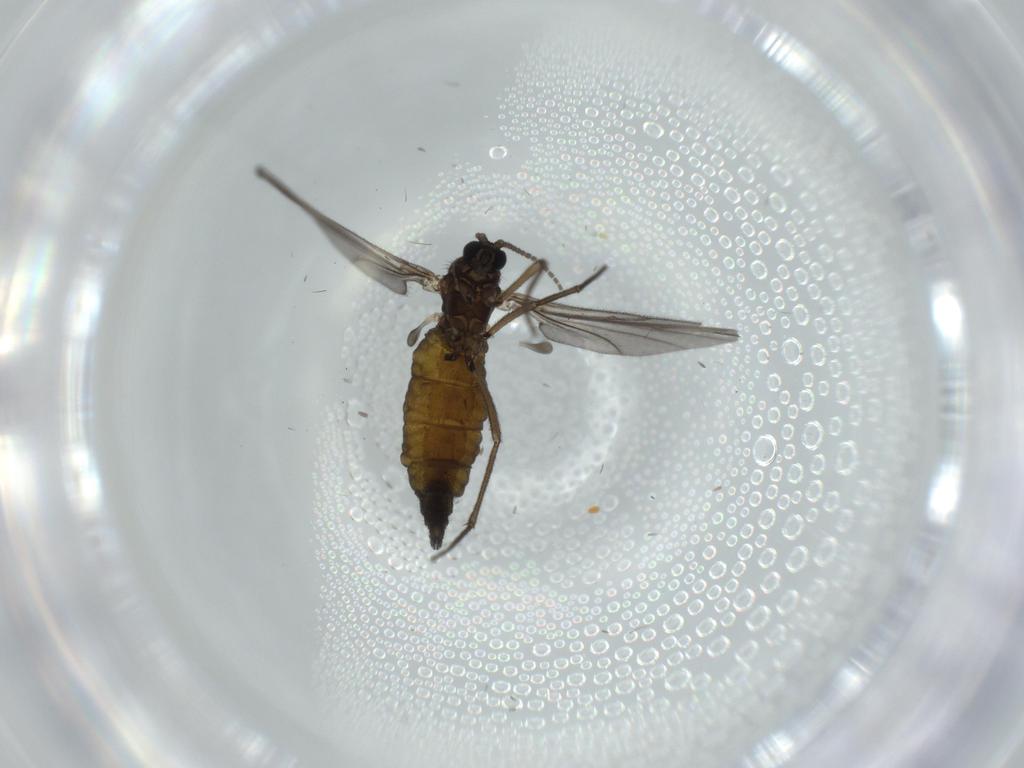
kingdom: Animalia
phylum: Arthropoda
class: Insecta
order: Diptera
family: Sciaridae
